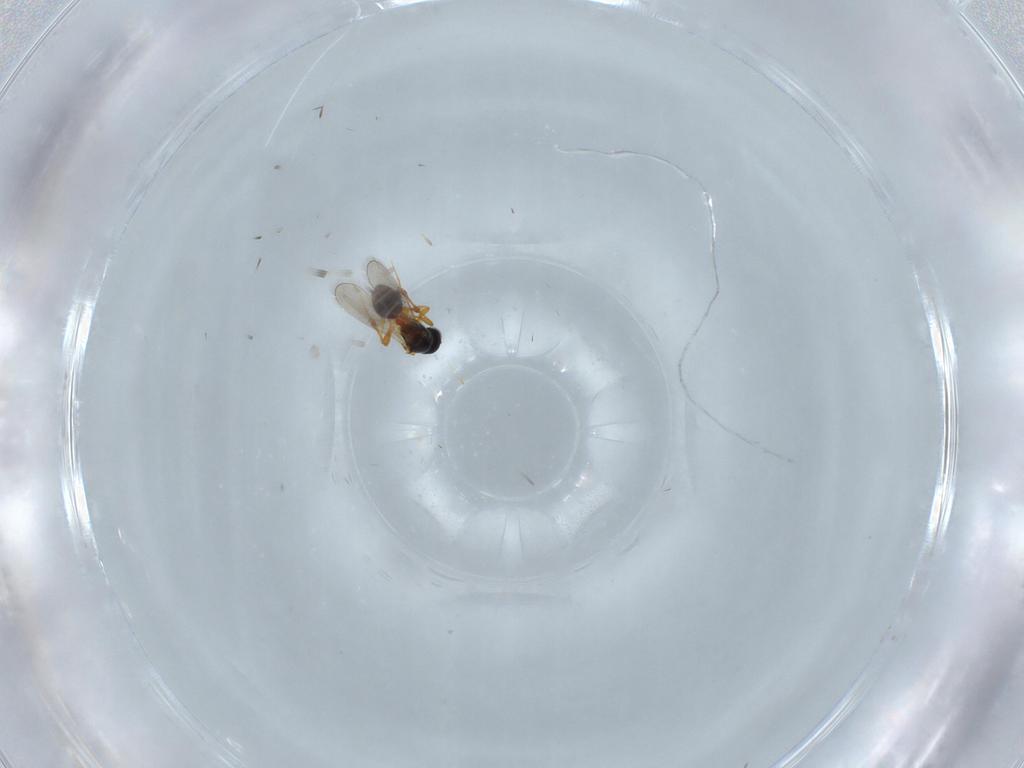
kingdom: Animalia
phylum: Arthropoda
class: Insecta
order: Hymenoptera
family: Platygastridae
